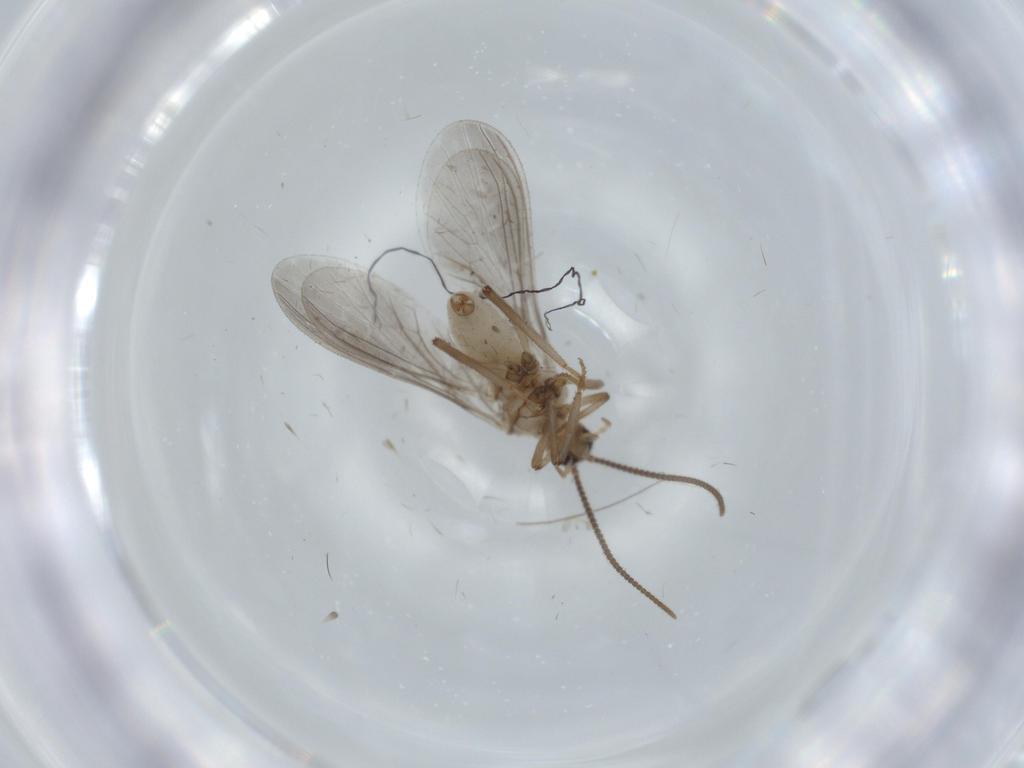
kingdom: Animalia
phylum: Arthropoda
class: Insecta
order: Neuroptera
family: Coniopterygidae
